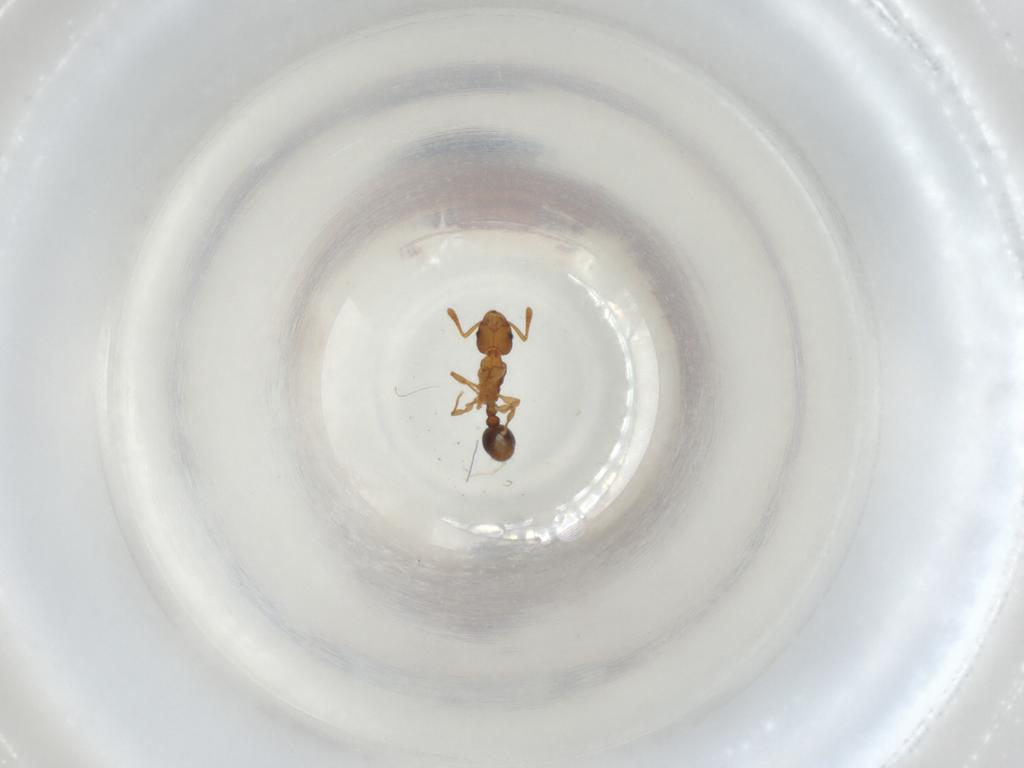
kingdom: Animalia
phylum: Arthropoda
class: Insecta
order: Hymenoptera
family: Formicidae
